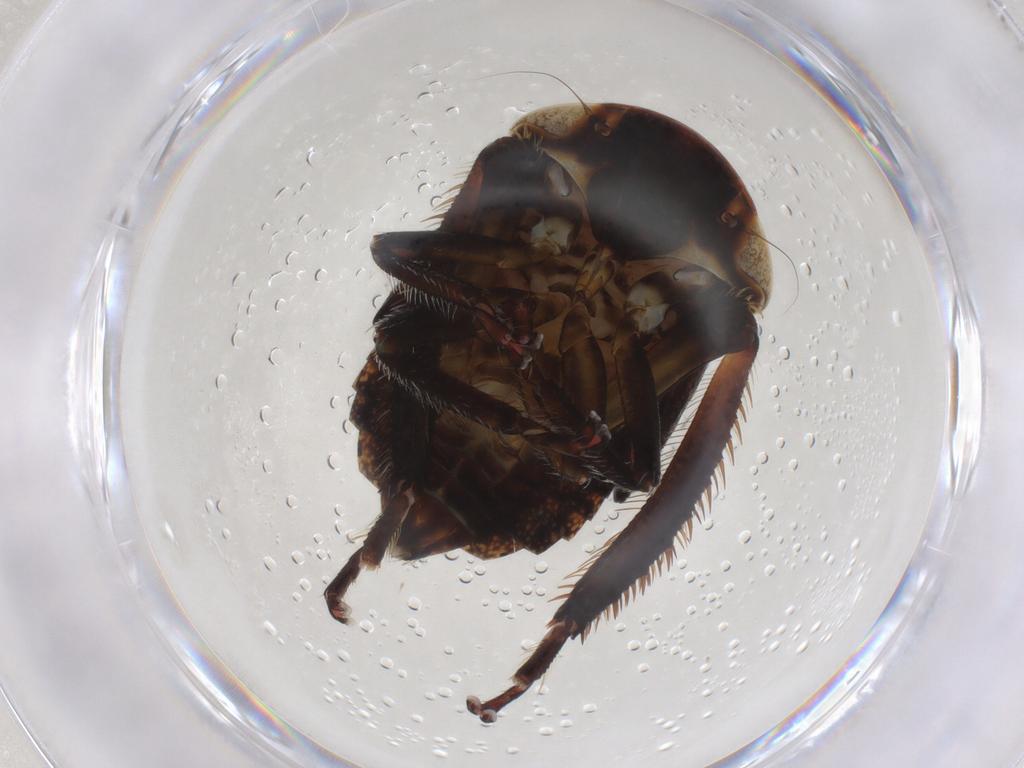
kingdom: Animalia
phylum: Arthropoda
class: Insecta
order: Hemiptera
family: Cicadellidae
